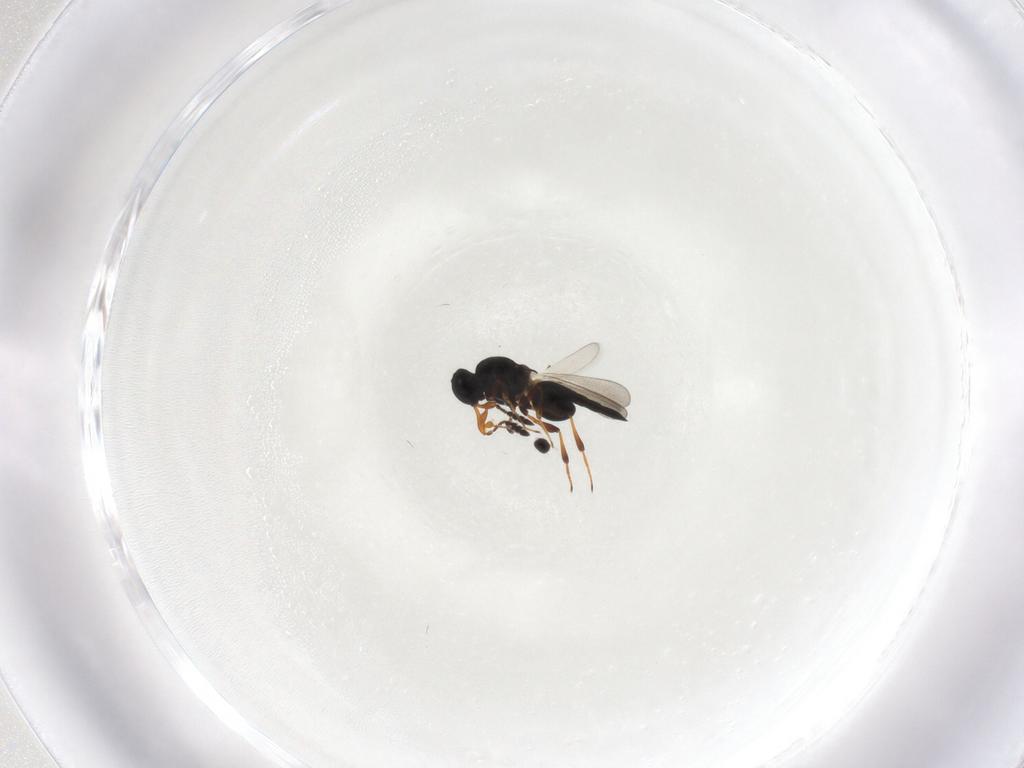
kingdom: Animalia
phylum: Arthropoda
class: Insecta
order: Hymenoptera
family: Platygastridae
